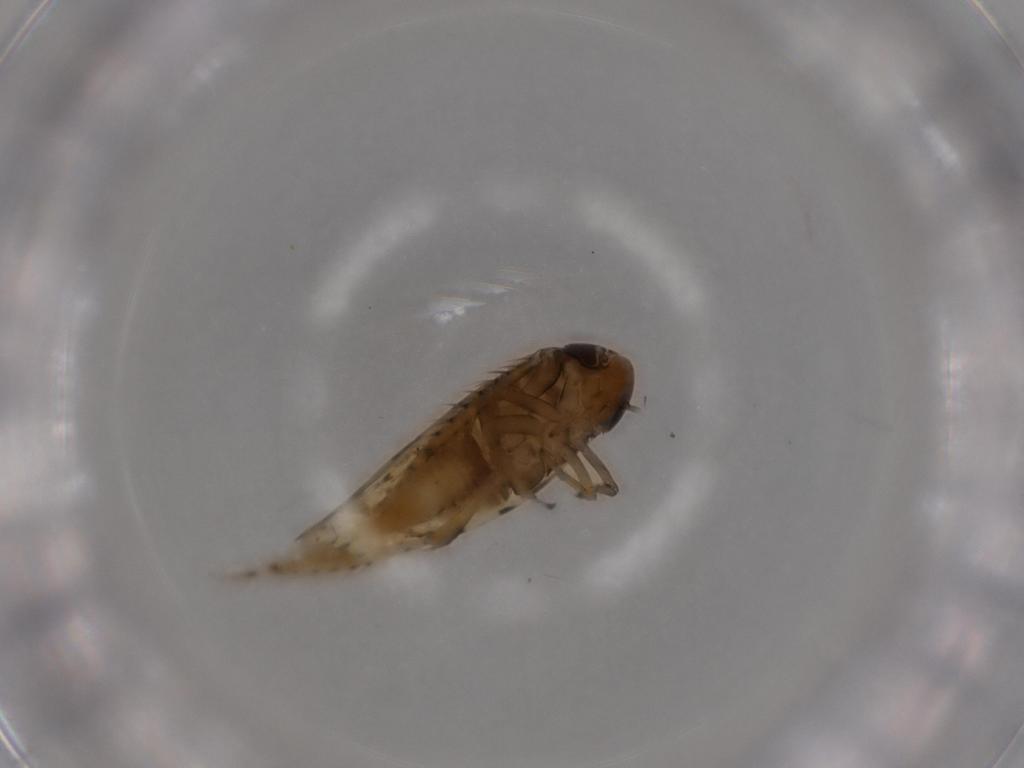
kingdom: Animalia
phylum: Arthropoda
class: Insecta
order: Hemiptera
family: Cicadellidae
